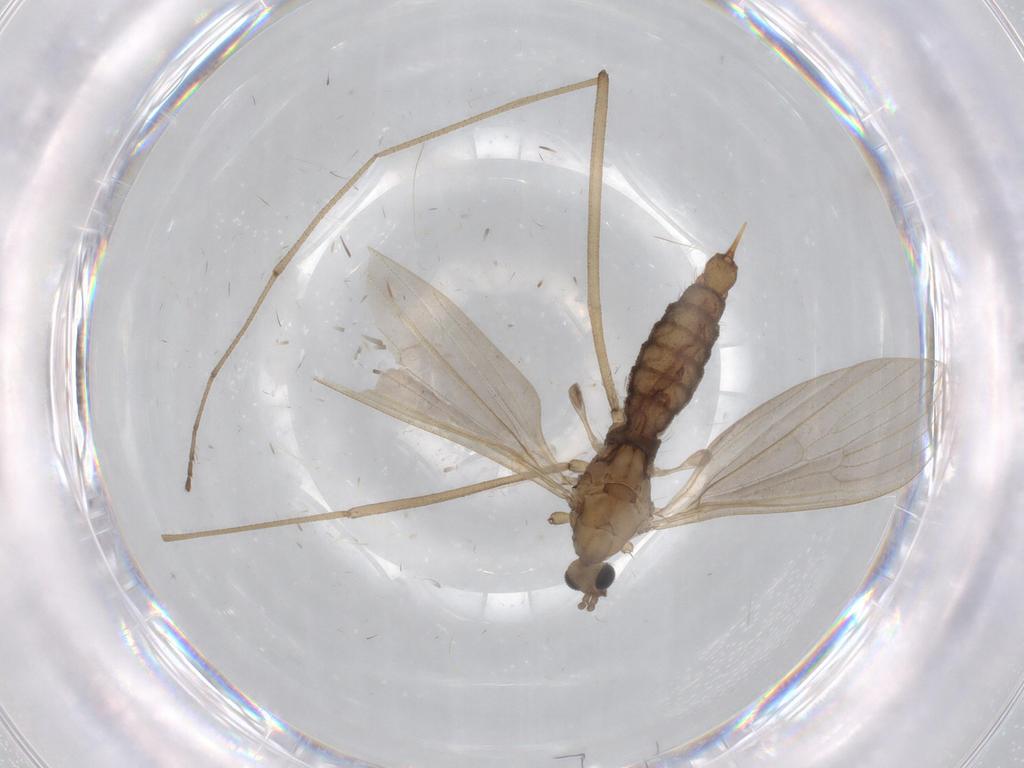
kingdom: Animalia
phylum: Arthropoda
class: Insecta
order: Diptera
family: Limoniidae
